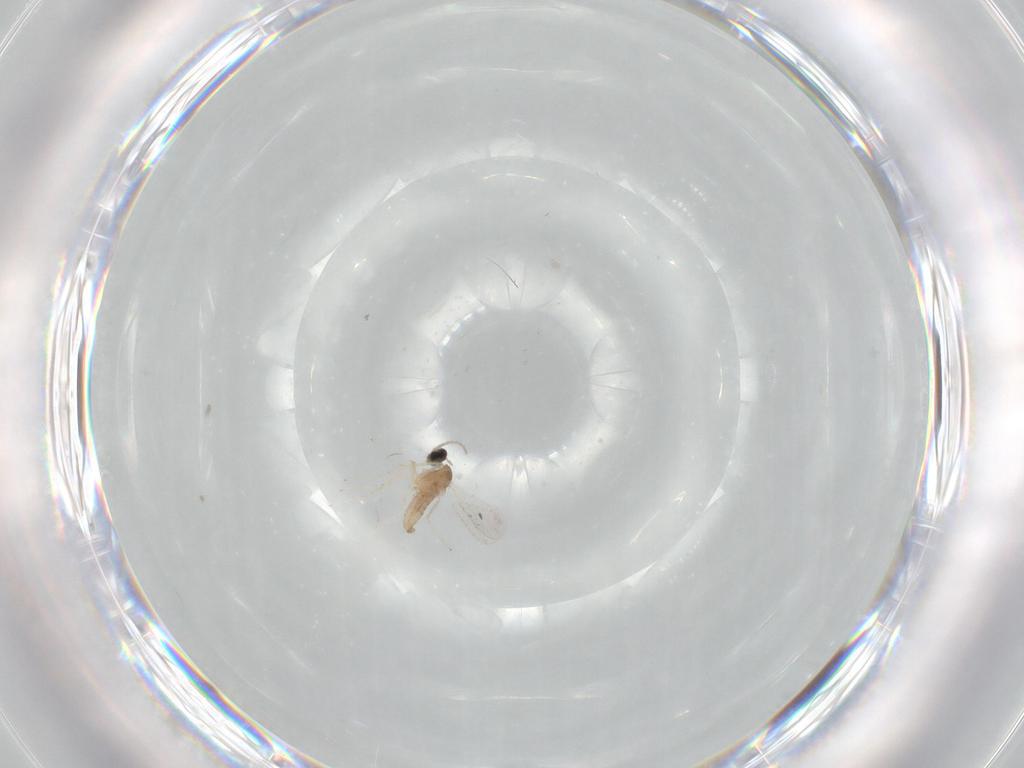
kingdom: Animalia
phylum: Arthropoda
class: Insecta
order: Diptera
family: Cecidomyiidae
